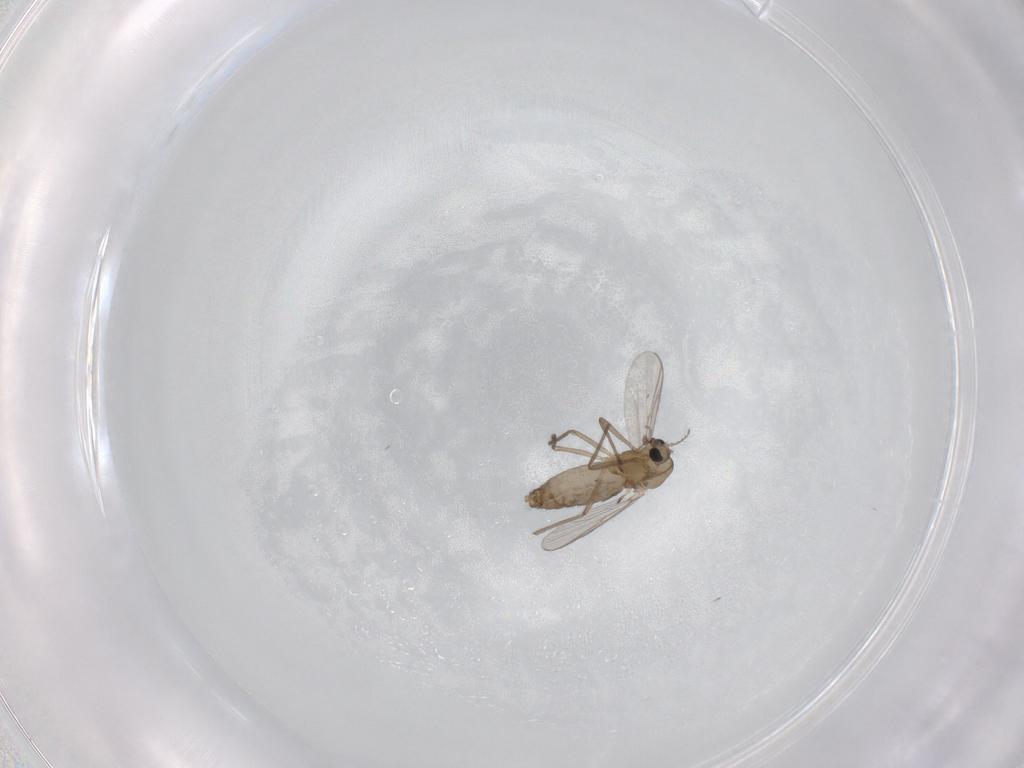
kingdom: Animalia
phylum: Arthropoda
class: Insecta
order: Diptera
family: Chironomidae
